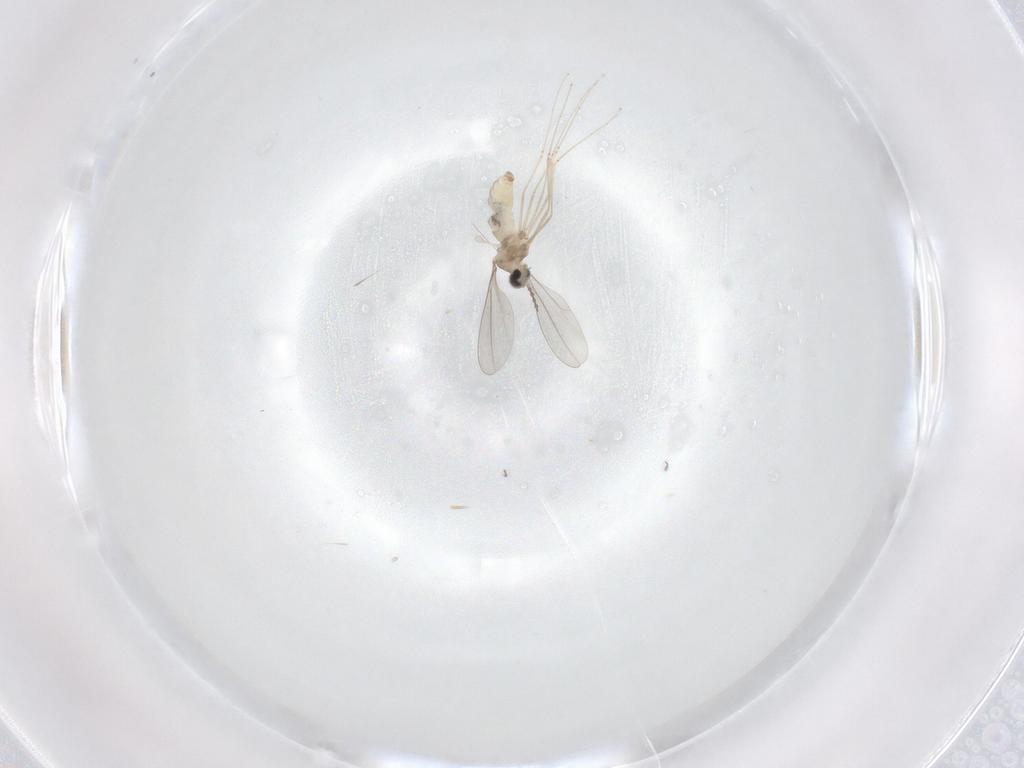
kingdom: Animalia
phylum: Arthropoda
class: Insecta
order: Diptera
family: Cecidomyiidae
